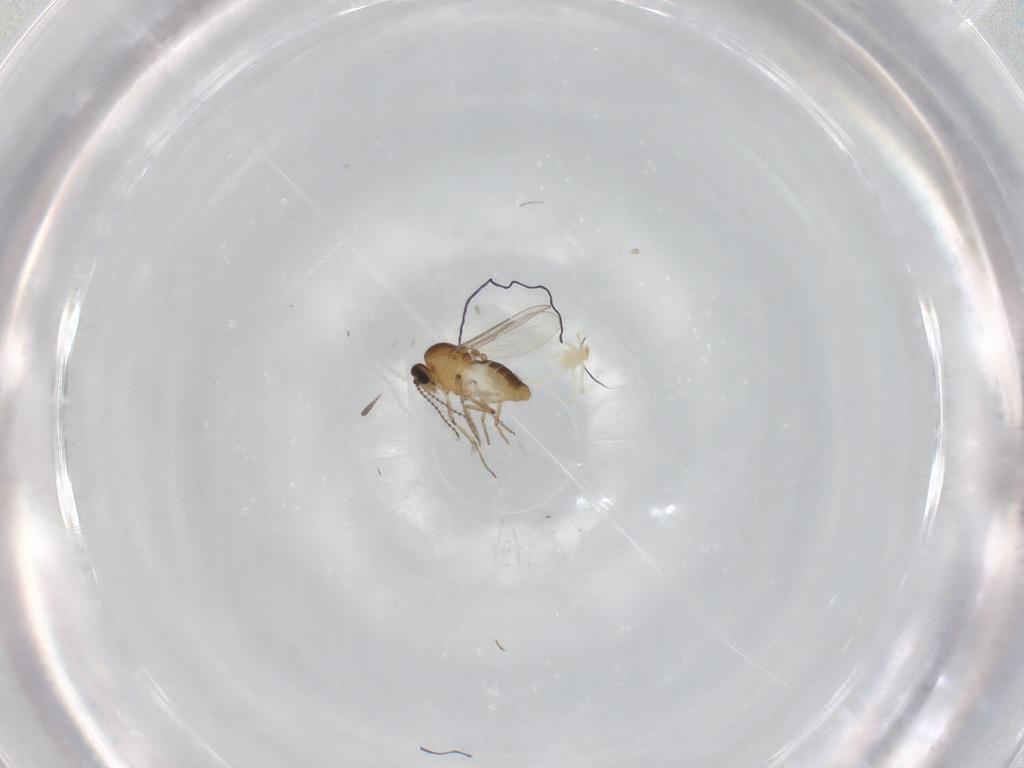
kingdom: Animalia
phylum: Arthropoda
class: Insecta
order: Diptera
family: Ceratopogonidae
